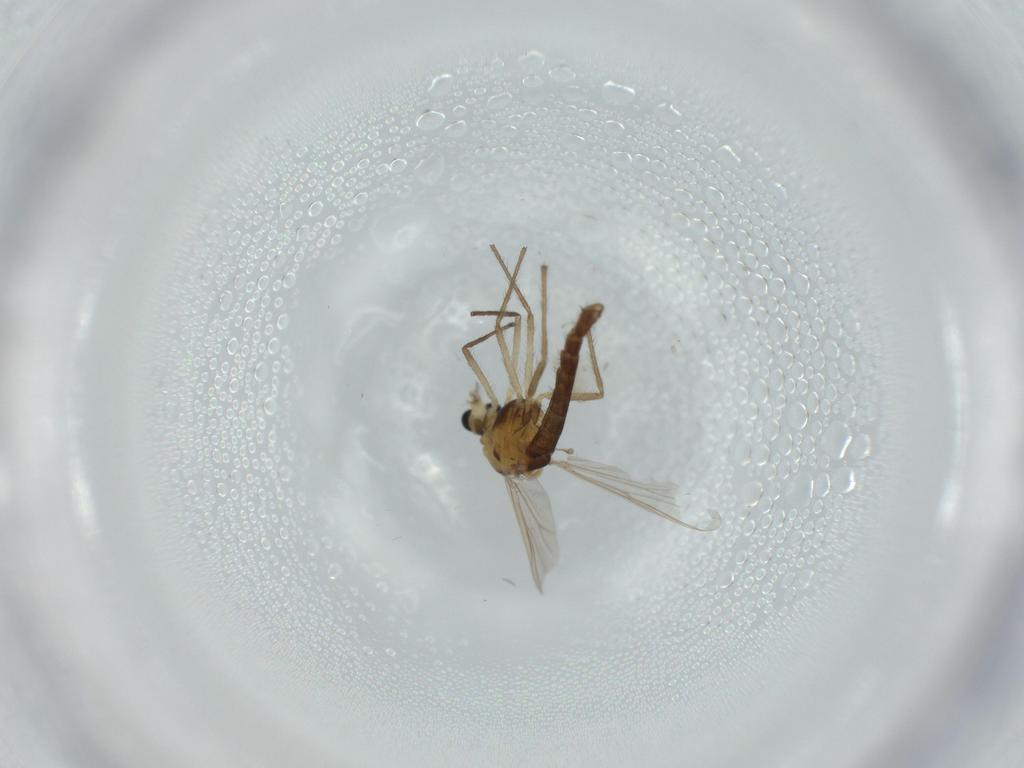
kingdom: Animalia
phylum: Arthropoda
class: Insecta
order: Diptera
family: Chironomidae
